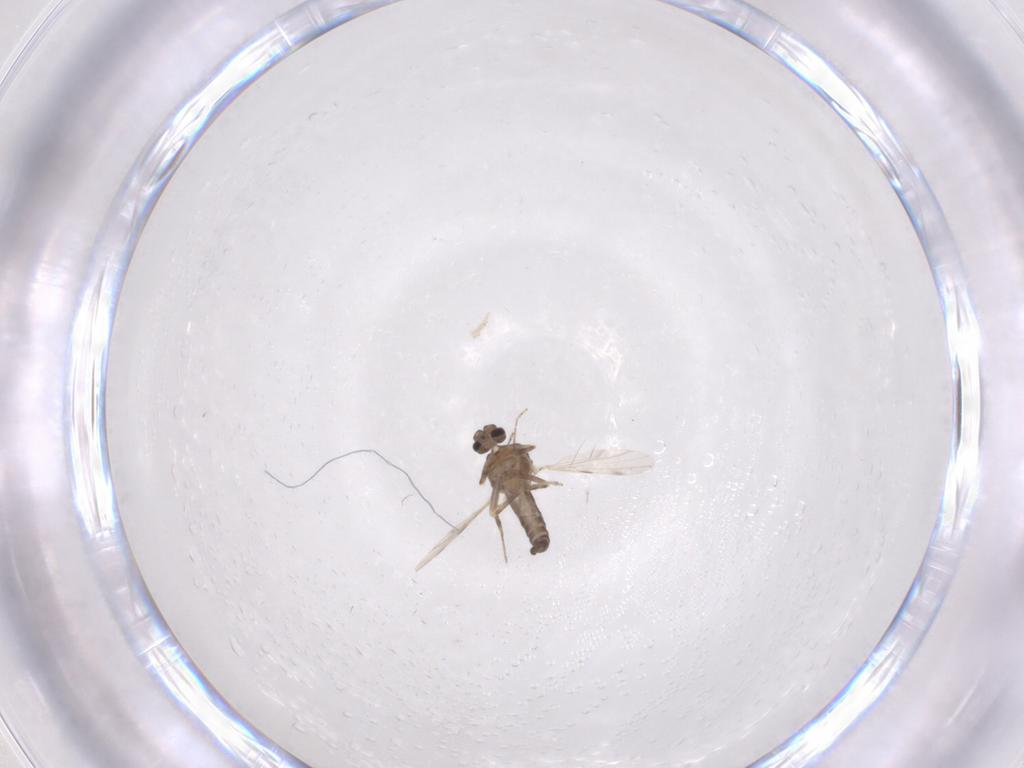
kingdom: Animalia
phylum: Arthropoda
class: Insecta
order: Diptera
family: Ceratopogonidae
